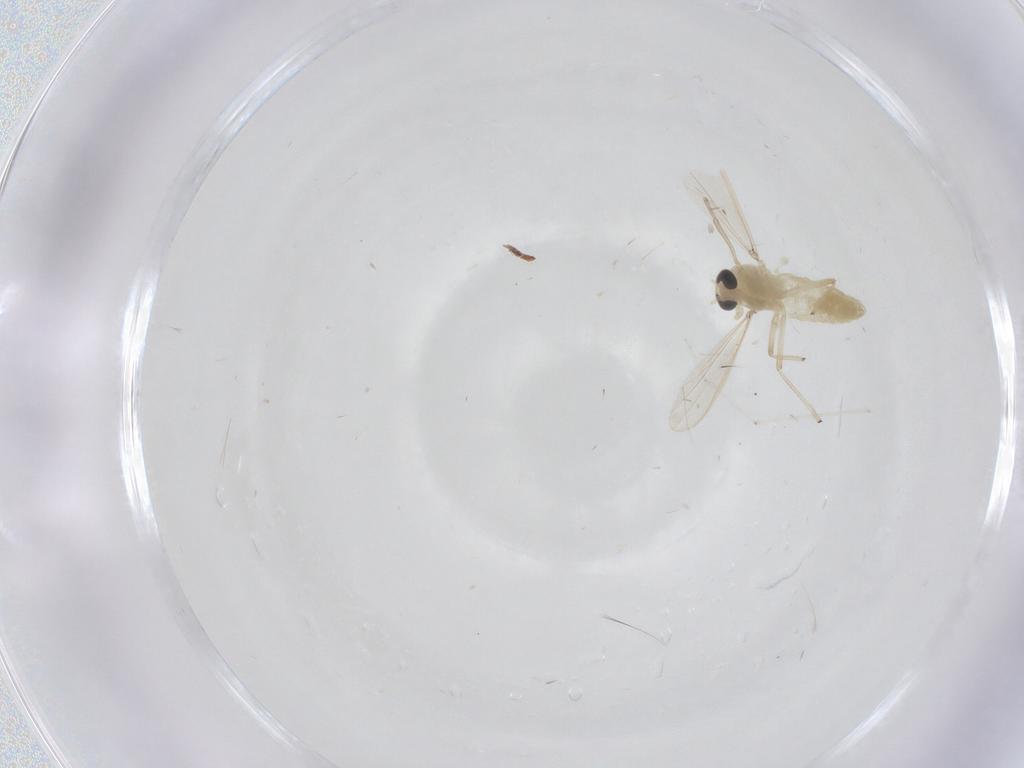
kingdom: Animalia
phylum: Arthropoda
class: Insecta
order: Diptera
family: Chironomidae
